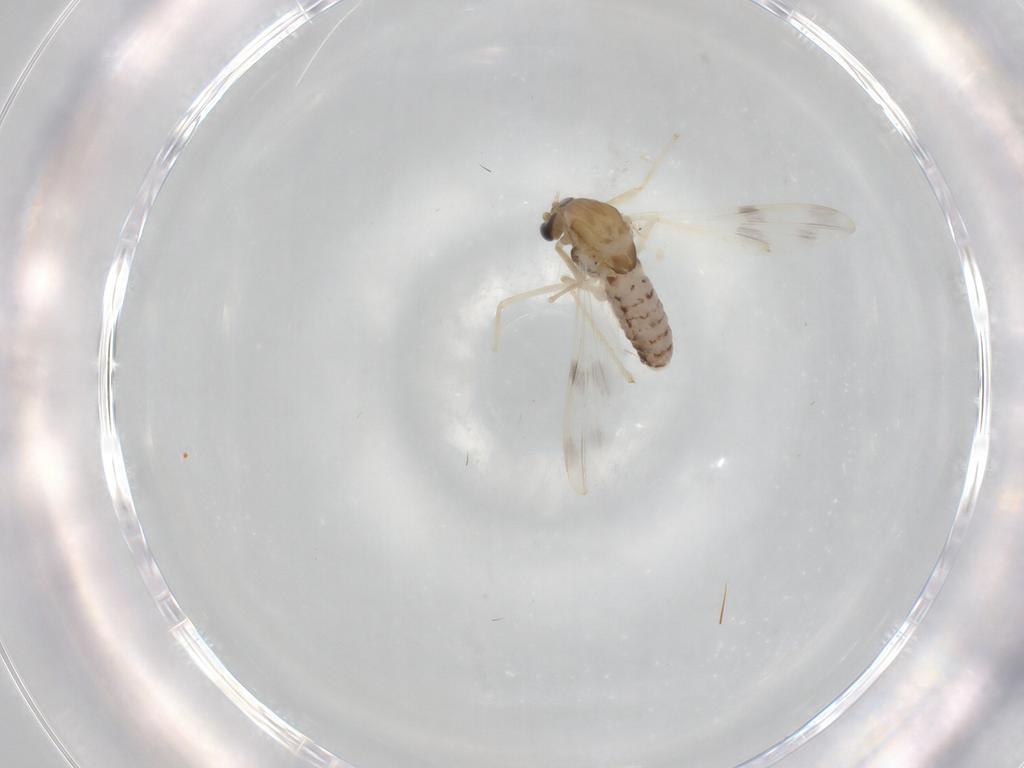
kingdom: Animalia
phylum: Arthropoda
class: Insecta
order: Diptera
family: Chironomidae
